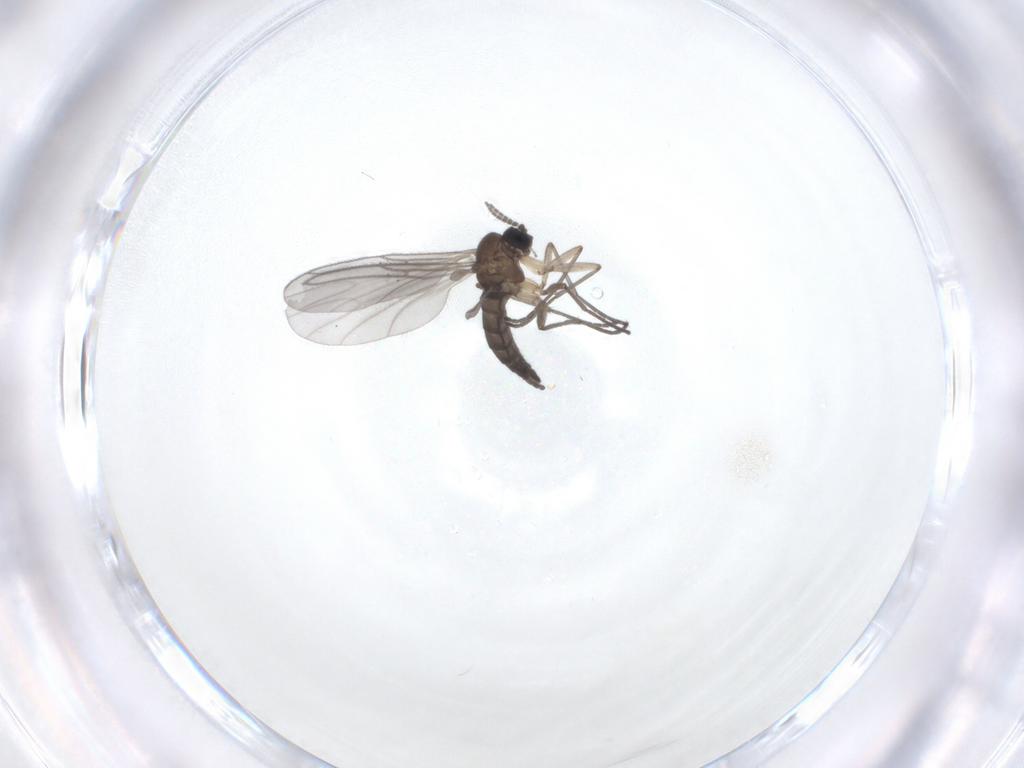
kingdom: Animalia
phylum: Arthropoda
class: Insecta
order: Diptera
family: Sciaridae
